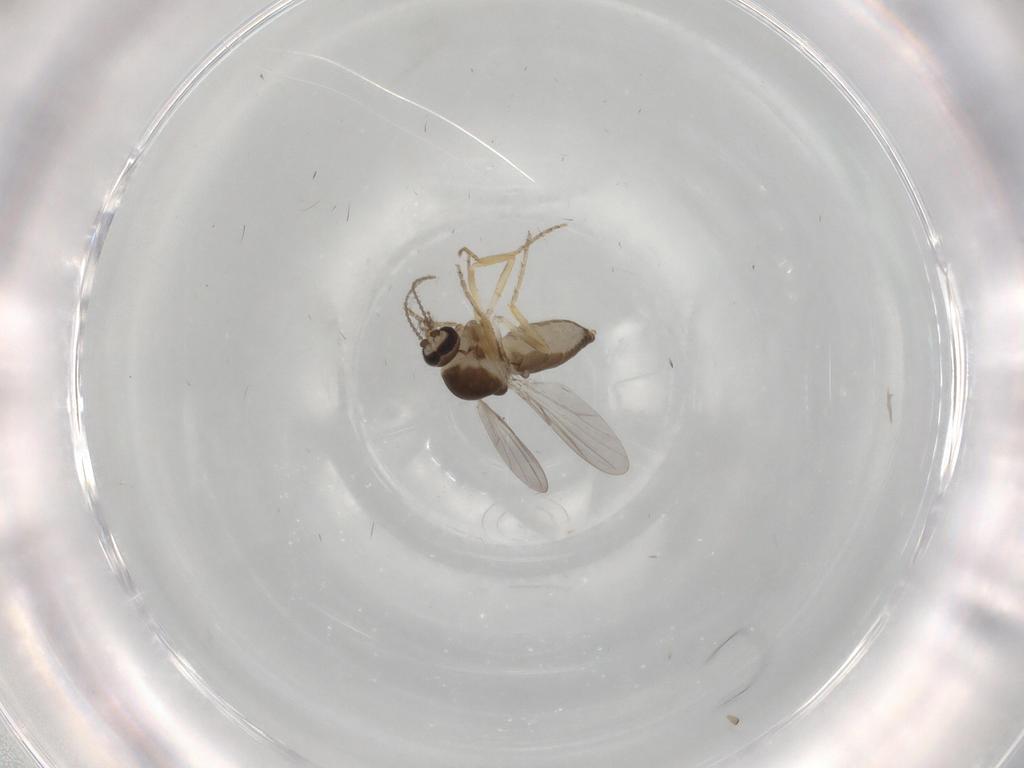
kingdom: Animalia
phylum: Arthropoda
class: Insecta
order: Diptera
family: Ceratopogonidae
